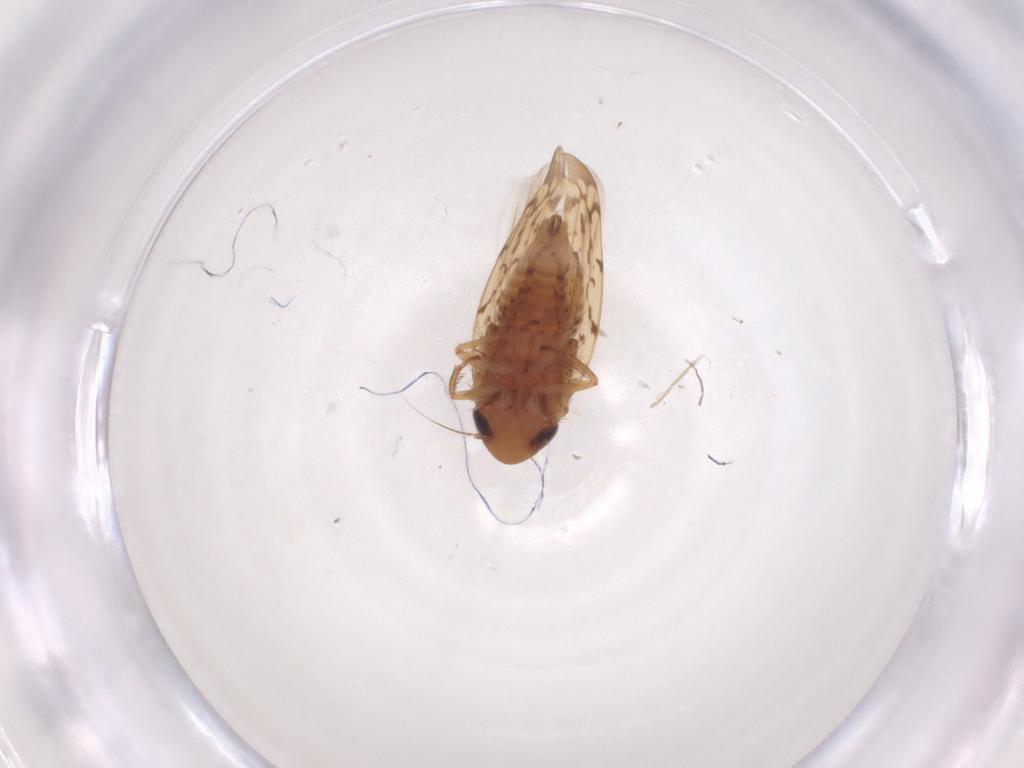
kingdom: Animalia
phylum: Arthropoda
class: Insecta
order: Hemiptera
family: Cicadellidae
